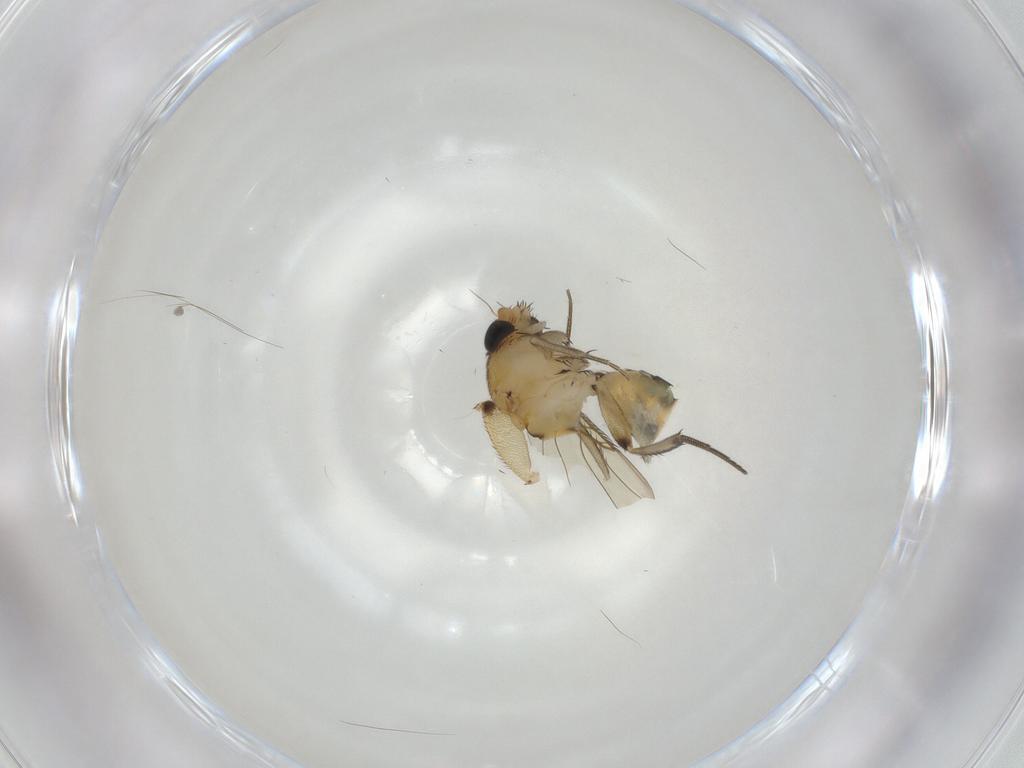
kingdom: Animalia
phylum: Arthropoda
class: Insecta
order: Diptera
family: Phoridae
